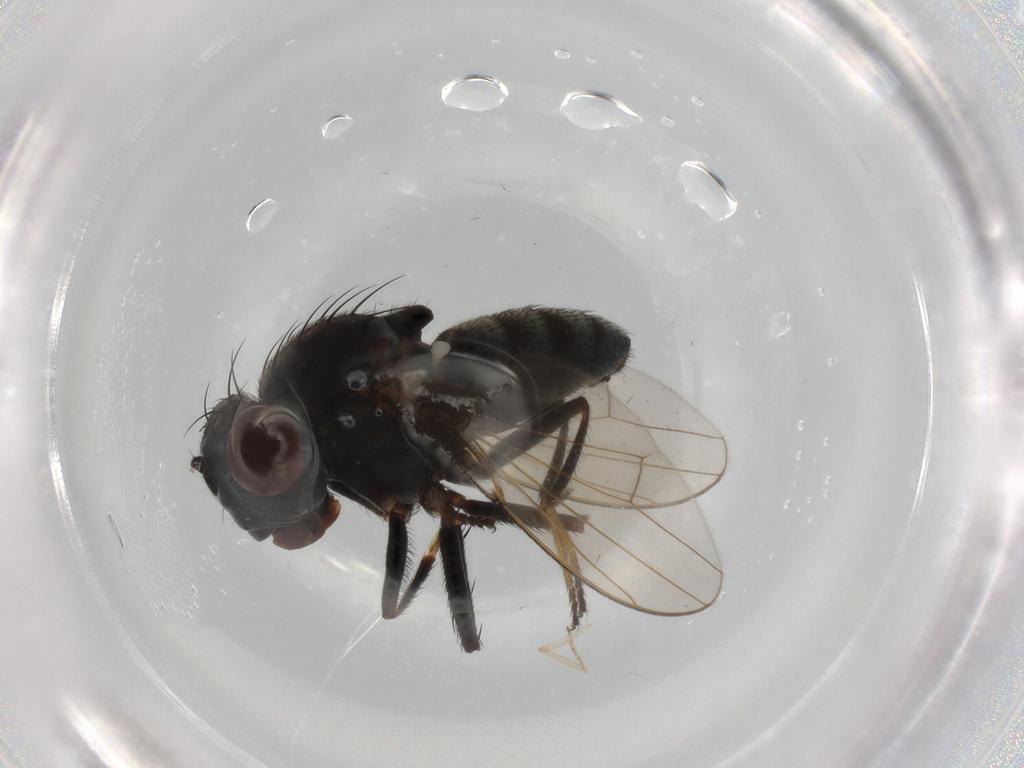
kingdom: Animalia
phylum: Arthropoda
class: Insecta
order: Diptera
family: Ephydridae
